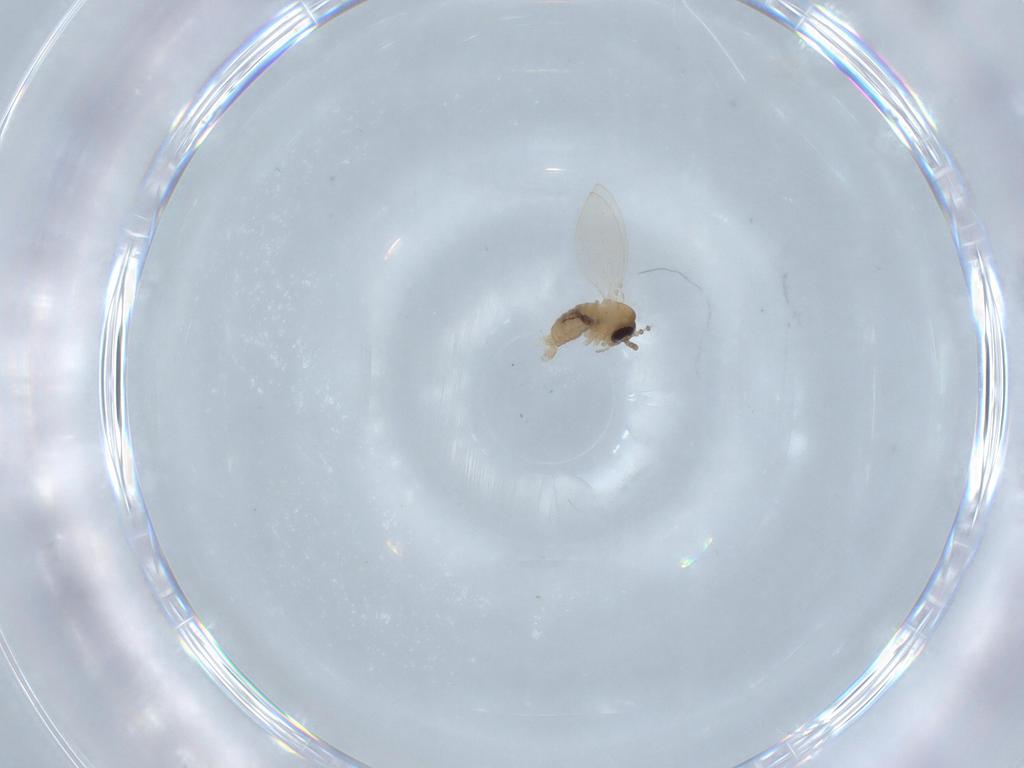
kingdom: Animalia
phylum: Arthropoda
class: Insecta
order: Diptera
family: Psychodidae
